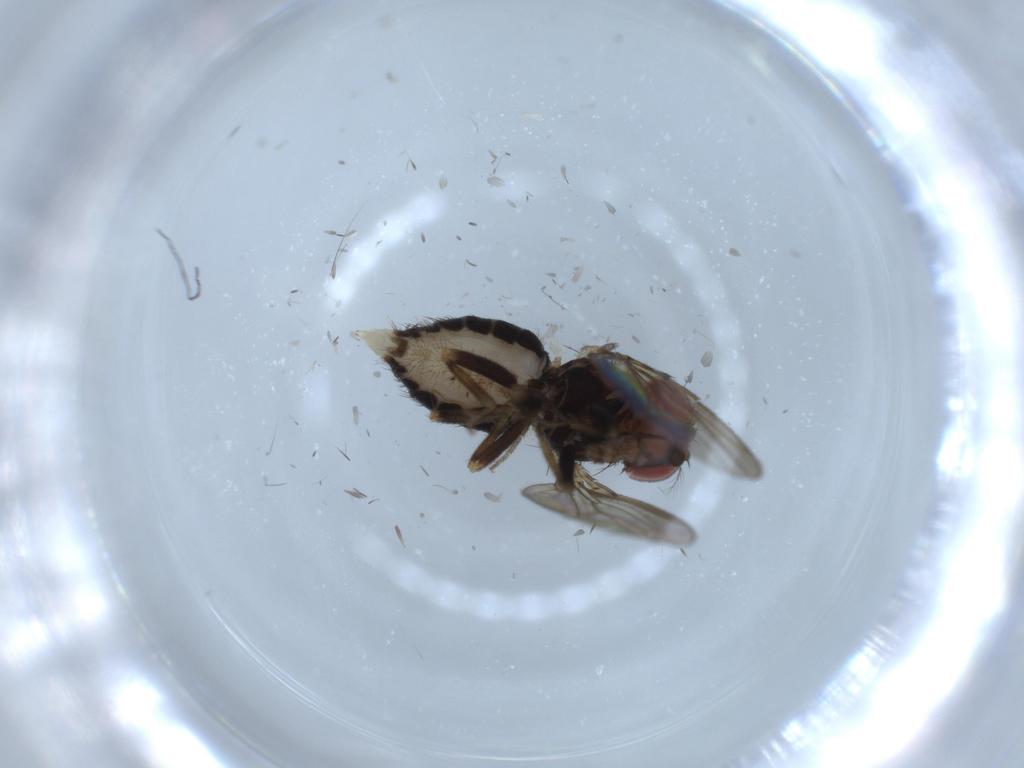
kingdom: Animalia
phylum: Arthropoda
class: Insecta
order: Diptera
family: Drosophilidae
